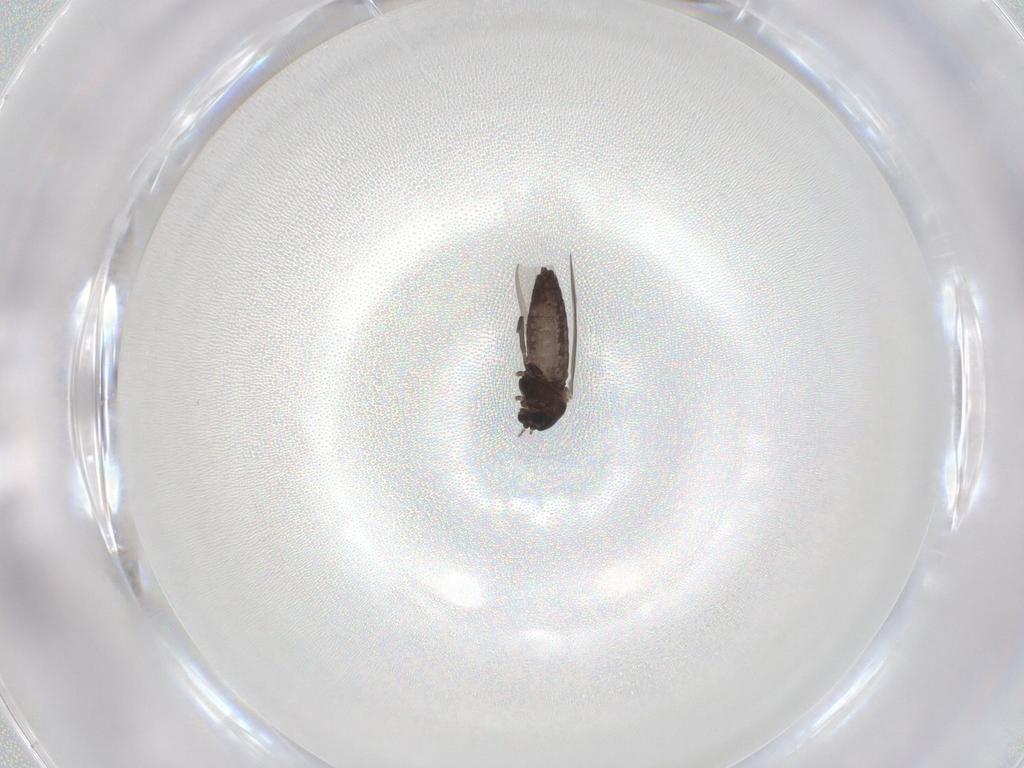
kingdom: Animalia
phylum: Arthropoda
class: Insecta
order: Diptera
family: Chironomidae
